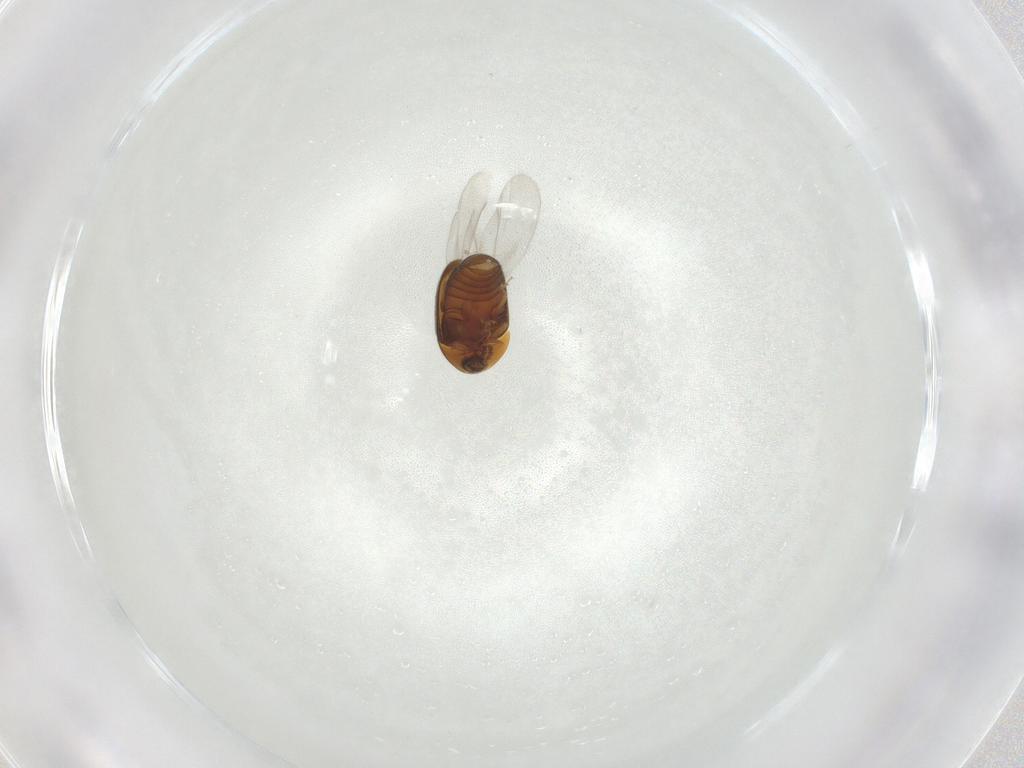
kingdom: Animalia
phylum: Arthropoda
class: Insecta
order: Coleoptera
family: Corylophidae
